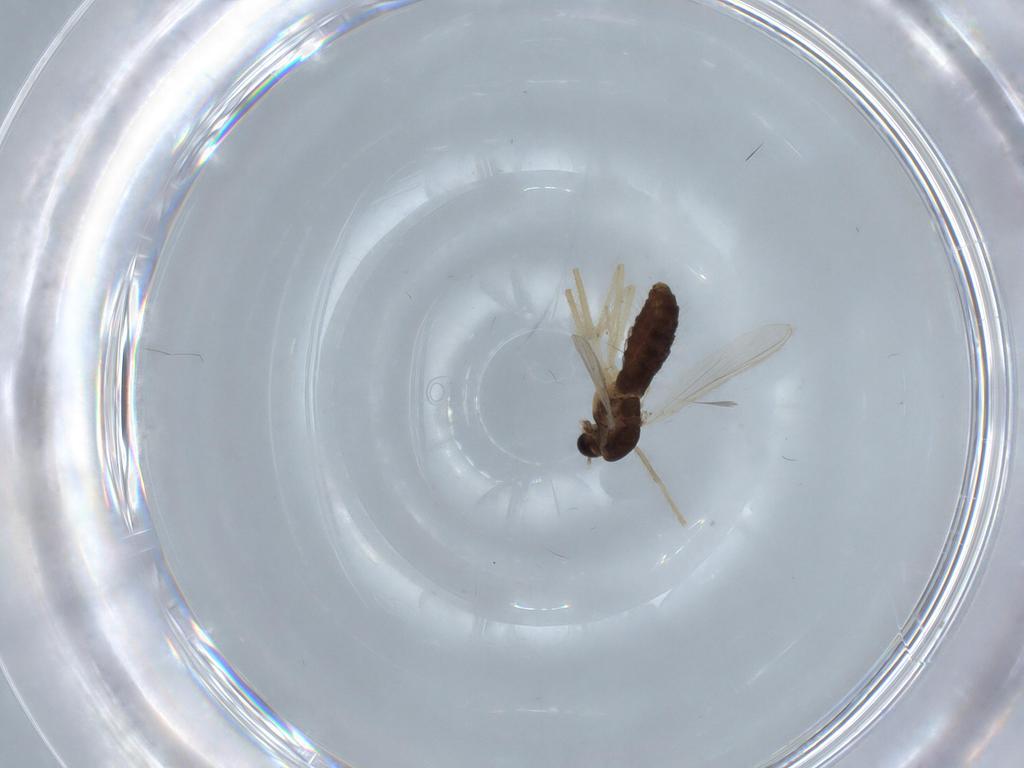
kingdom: Animalia
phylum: Arthropoda
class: Insecta
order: Diptera
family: Chironomidae
